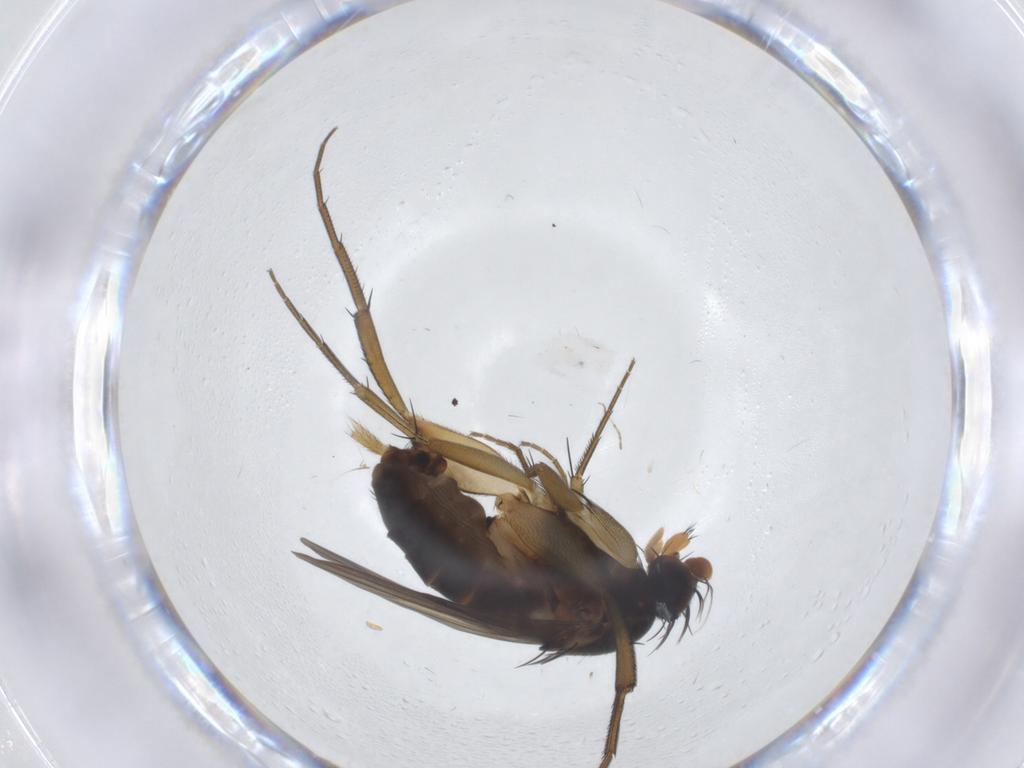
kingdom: Animalia
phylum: Arthropoda
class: Insecta
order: Diptera
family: Phoridae
